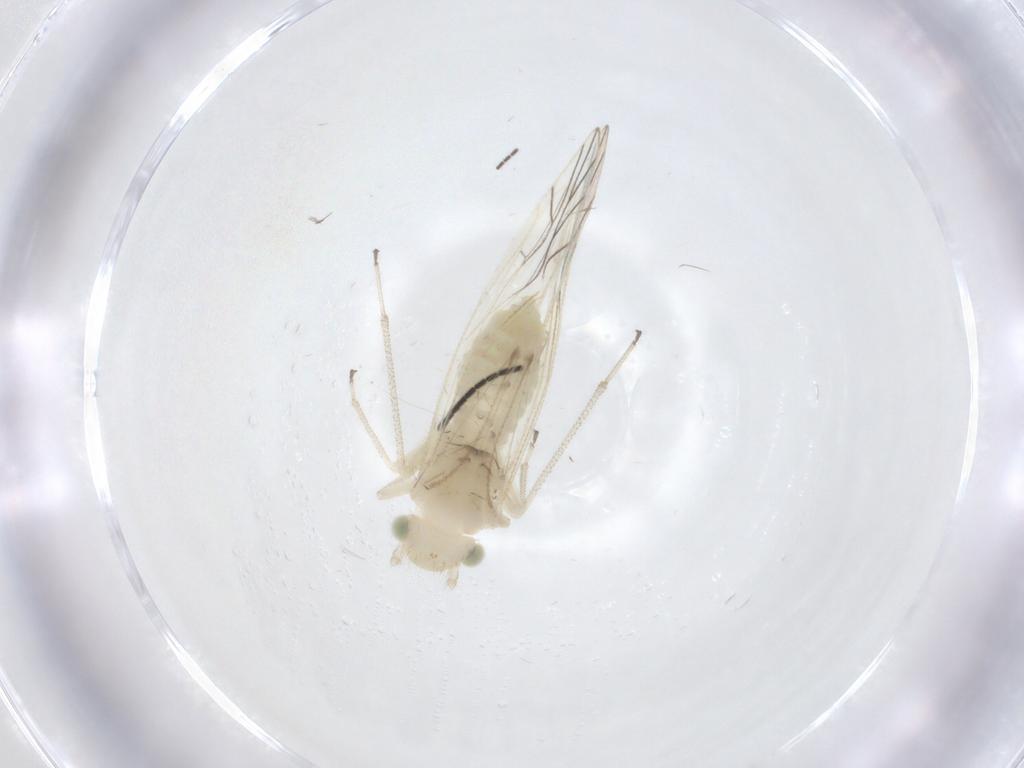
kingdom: Animalia
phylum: Arthropoda
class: Insecta
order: Psocodea
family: Elipsocidae
